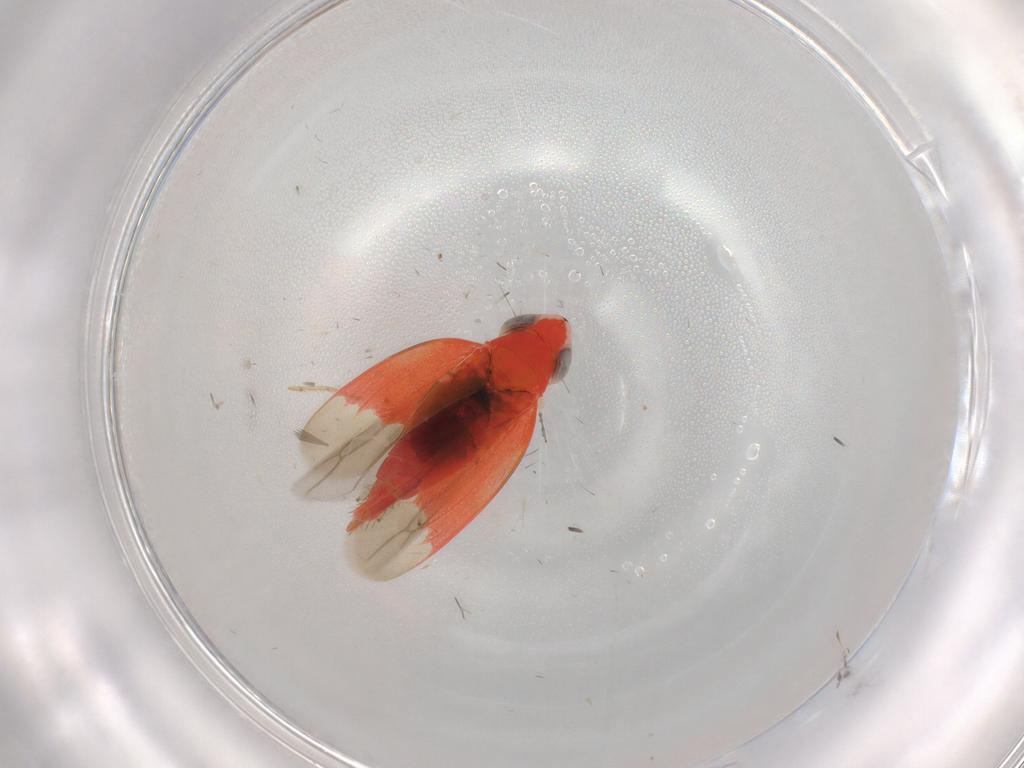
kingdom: Animalia
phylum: Arthropoda
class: Insecta
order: Hemiptera
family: Cicadellidae
